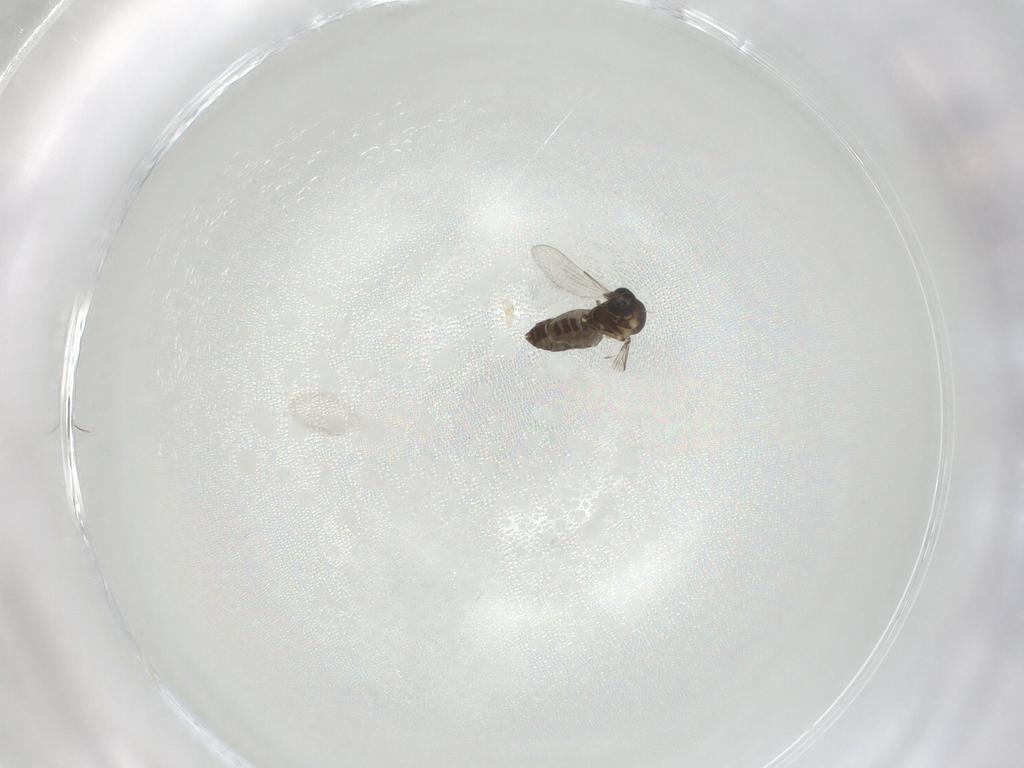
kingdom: Animalia
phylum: Arthropoda
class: Insecta
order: Diptera
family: Ceratopogonidae
